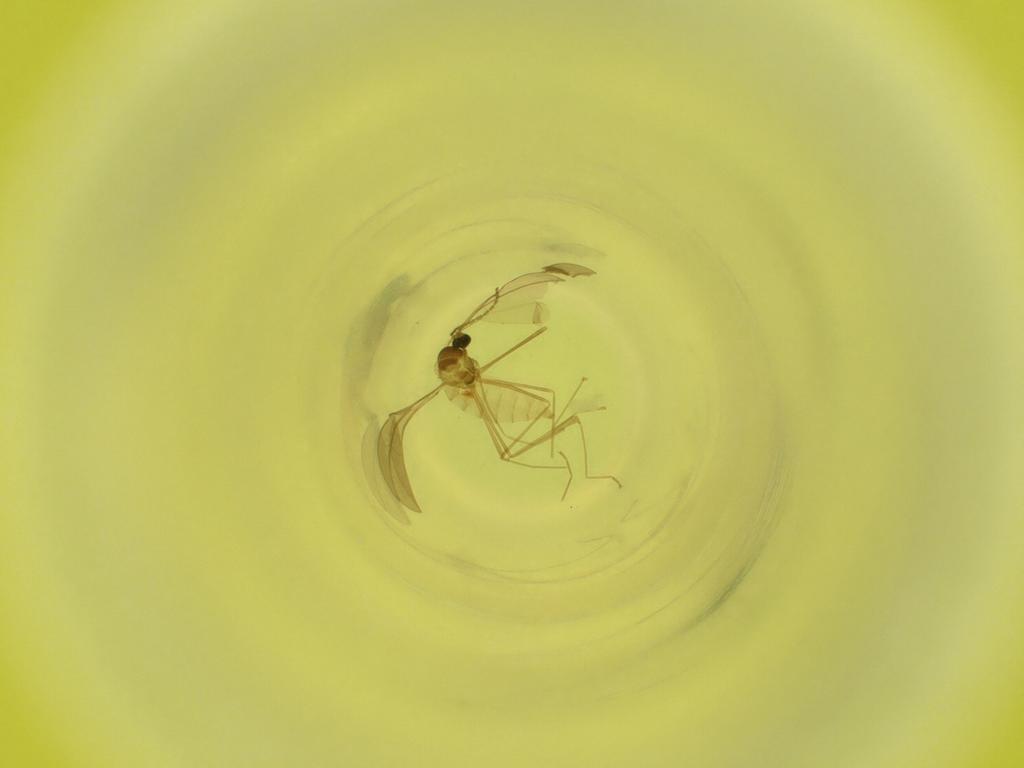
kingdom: Animalia
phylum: Arthropoda
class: Insecta
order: Diptera
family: Cecidomyiidae
